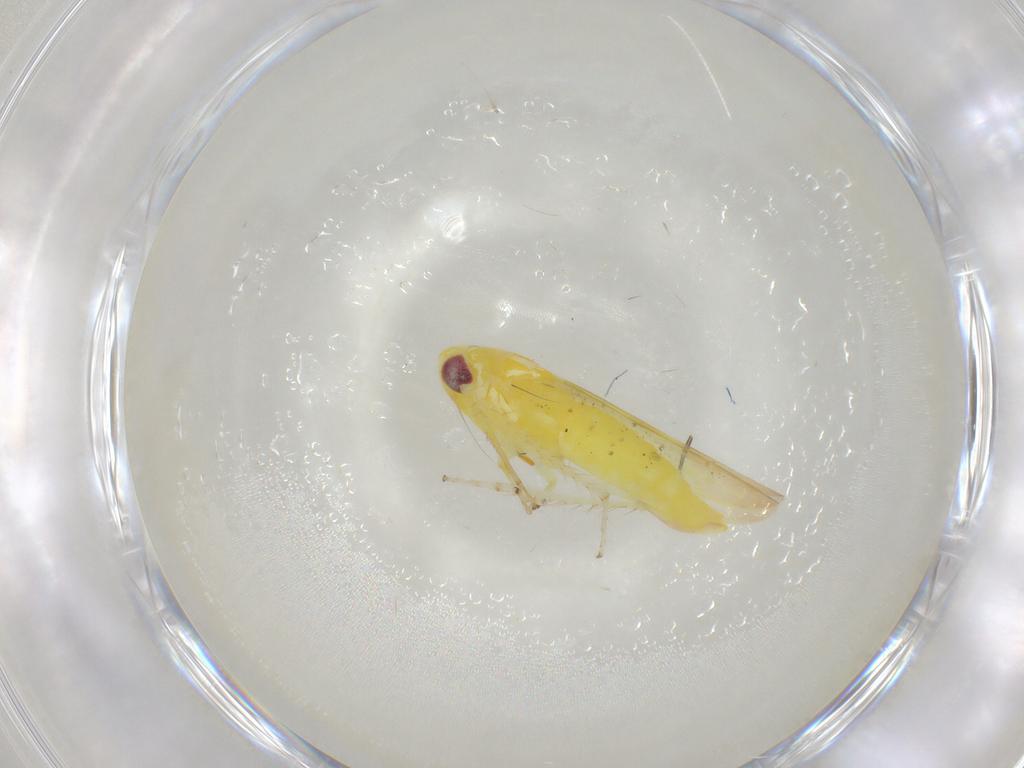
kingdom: Animalia
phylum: Arthropoda
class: Insecta
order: Hemiptera
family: Cicadellidae
